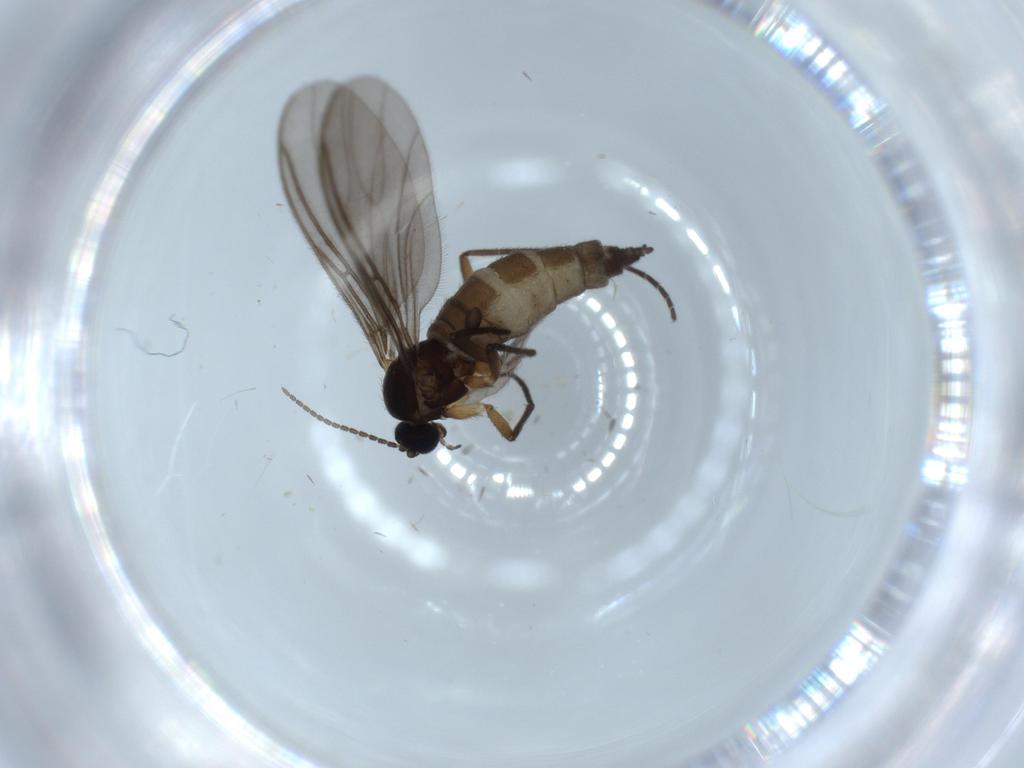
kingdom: Animalia
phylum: Arthropoda
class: Insecta
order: Diptera
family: Sciaridae
